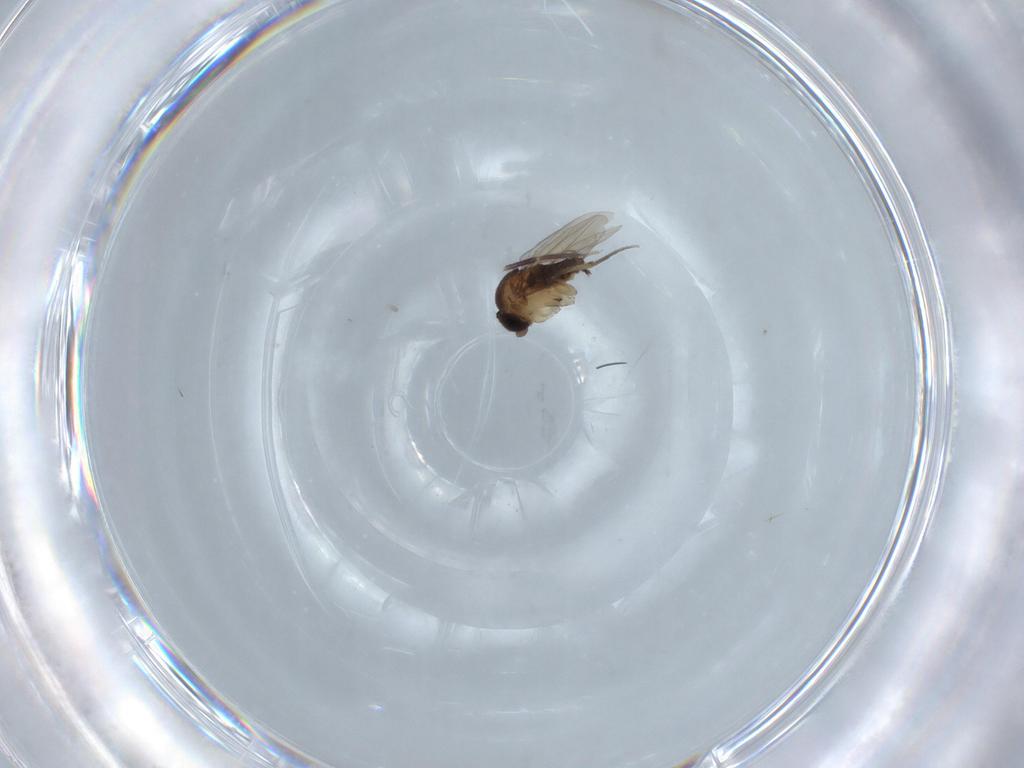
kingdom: Animalia
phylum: Arthropoda
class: Insecta
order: Diptera
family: Phoridae
